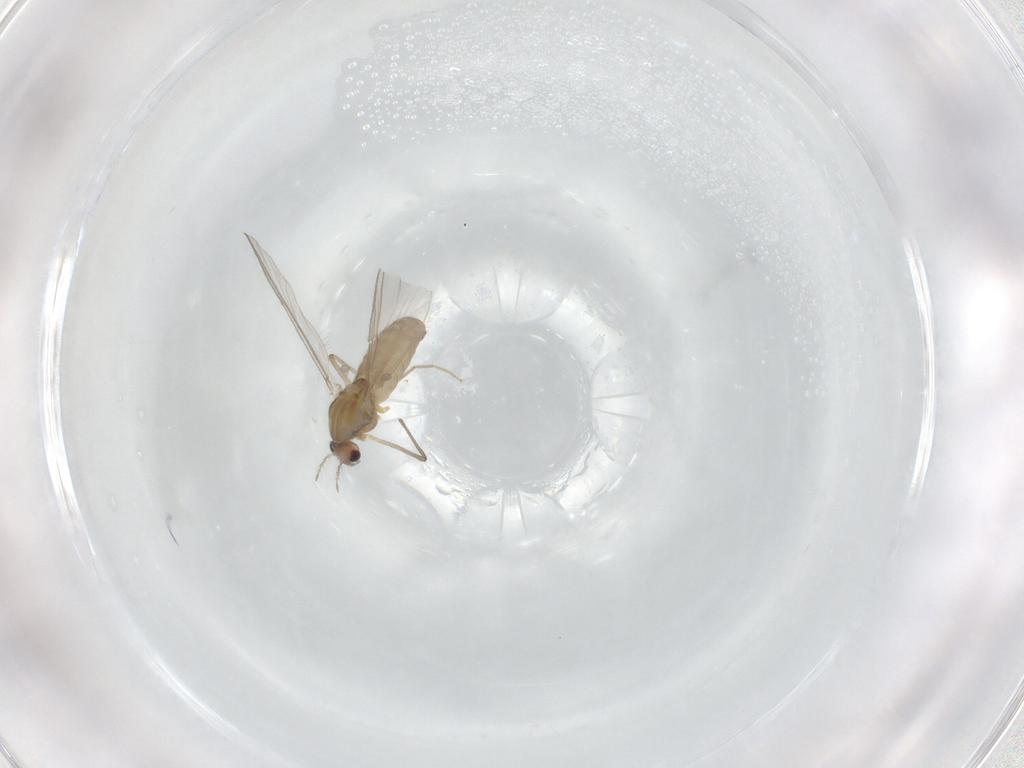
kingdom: Animalia
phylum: Arthropoda
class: Insecta
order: Diptera
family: Chironomidae
